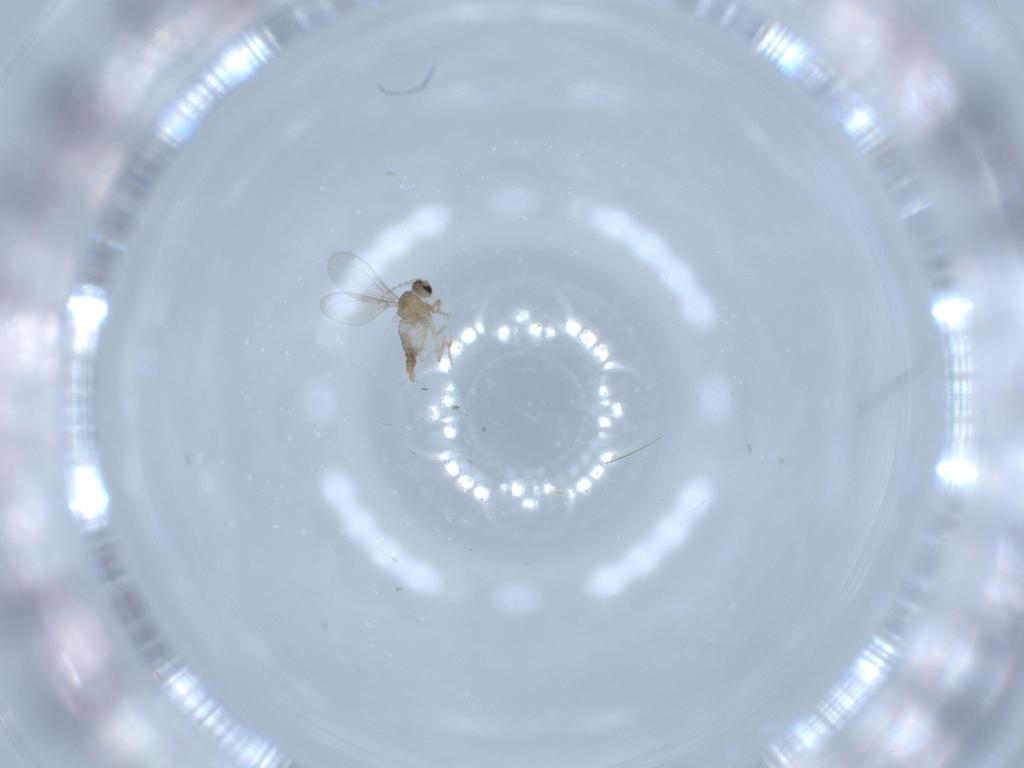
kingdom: Animalia
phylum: Arthropoda
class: Insecta
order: Diptera
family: Cecidomyiidae
